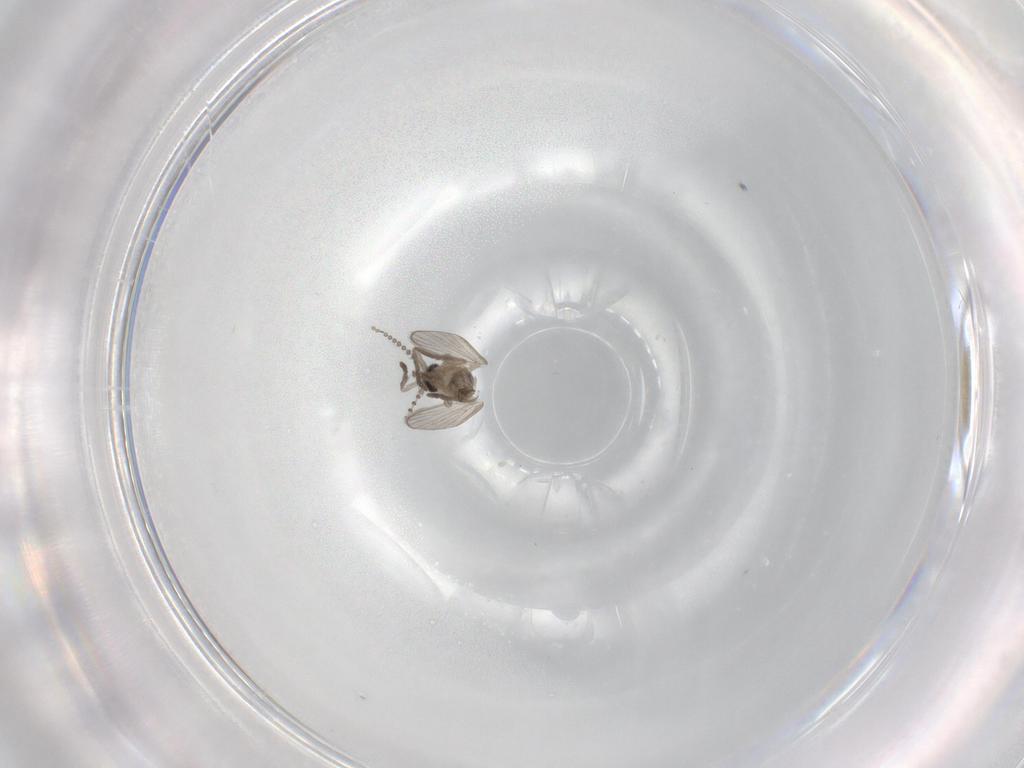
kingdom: Animalia
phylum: Arthropoda
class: Insecta
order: Diptera
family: Psychodidae
